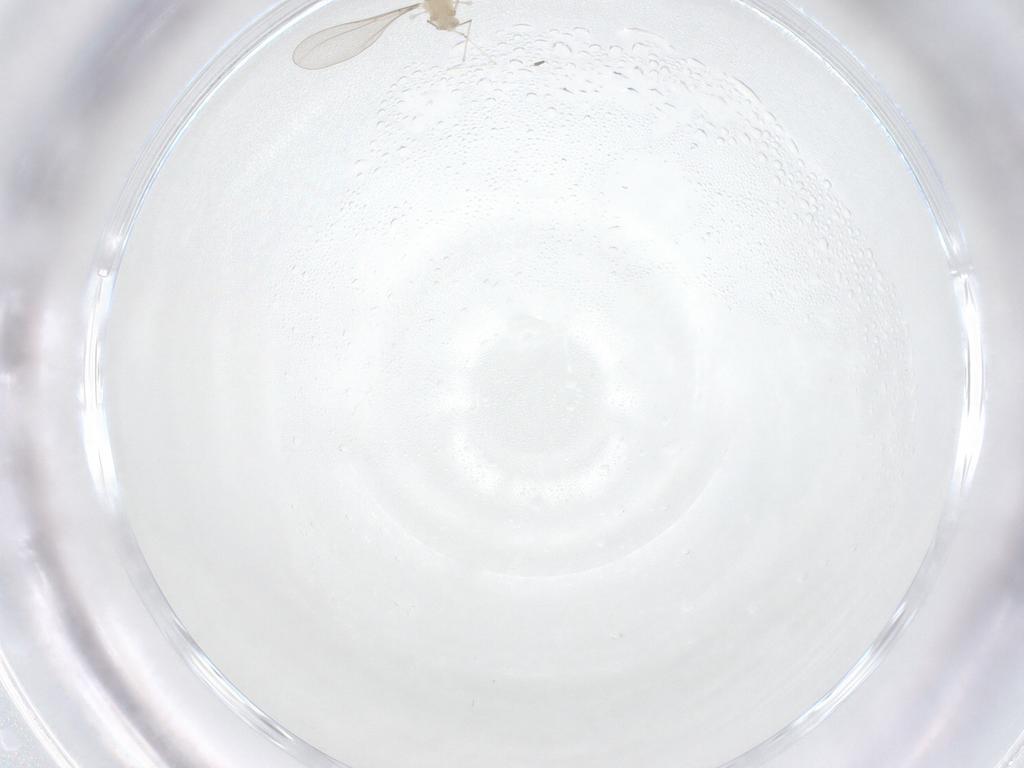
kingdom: Animalia
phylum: Arthropoda
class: Insecta
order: Diptera
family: Cecidomyiidae
